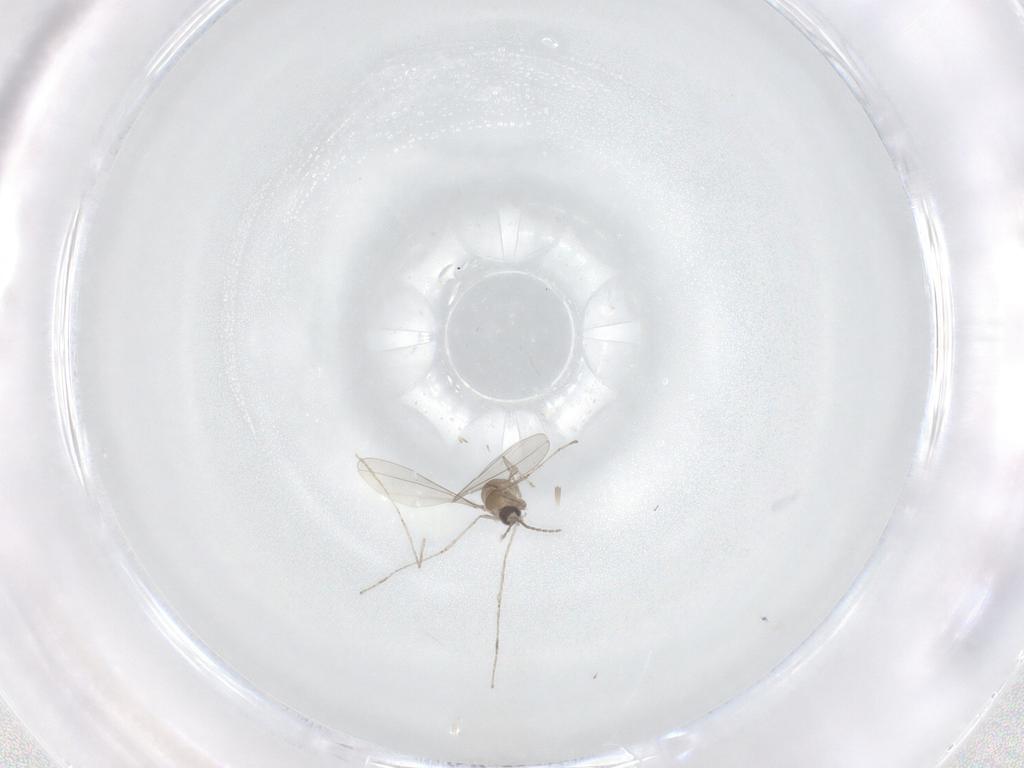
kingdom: Animalia
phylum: Arthropoda
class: Insecta
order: Diptera
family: Cecidomyiidae
